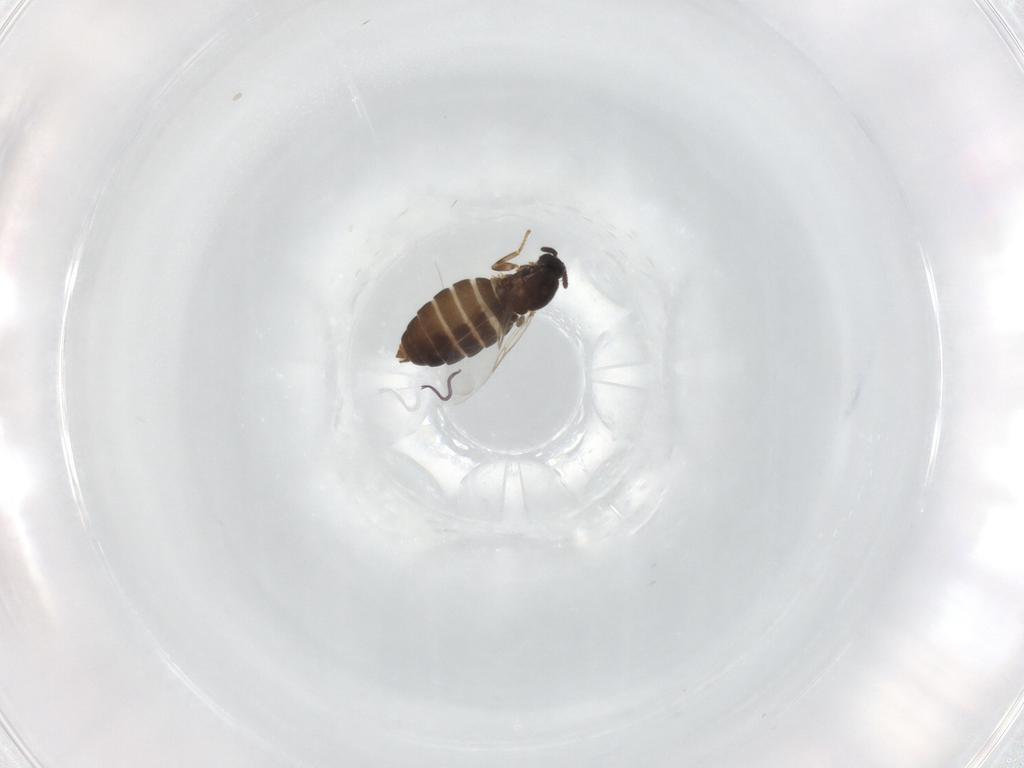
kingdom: Animalia
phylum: Arthropoda
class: Insecta
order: Diptera
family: Scatopsidae
